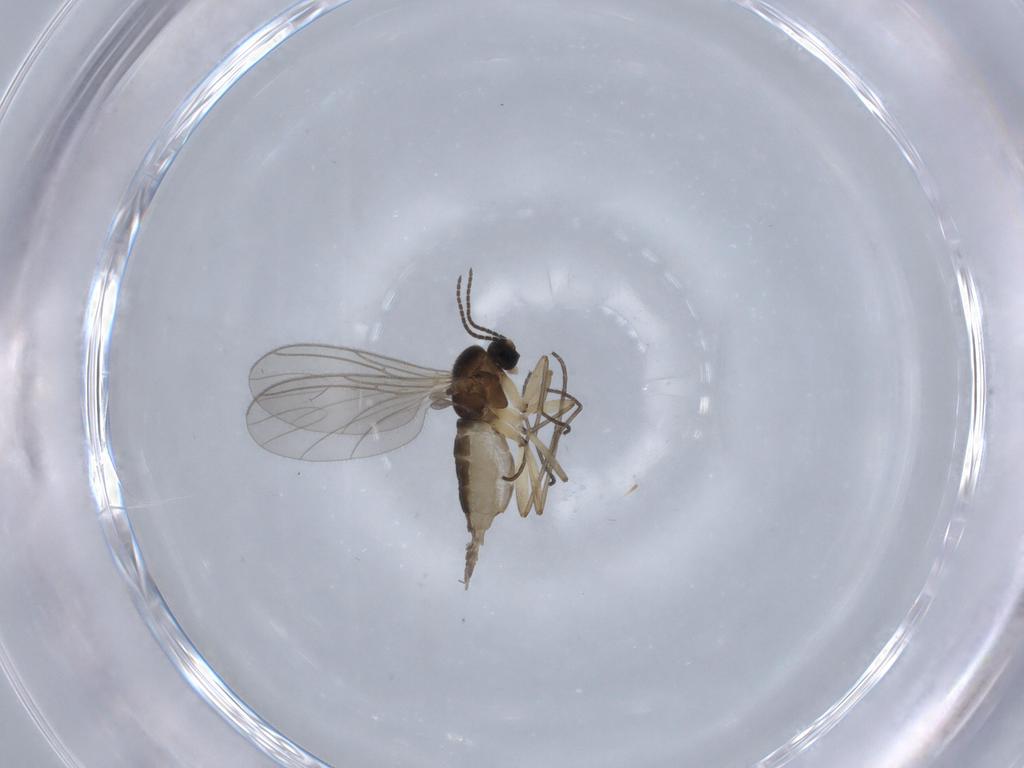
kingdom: Animalia
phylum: Arthropoda
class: Insecta
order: Diptera
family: Sciaridae
